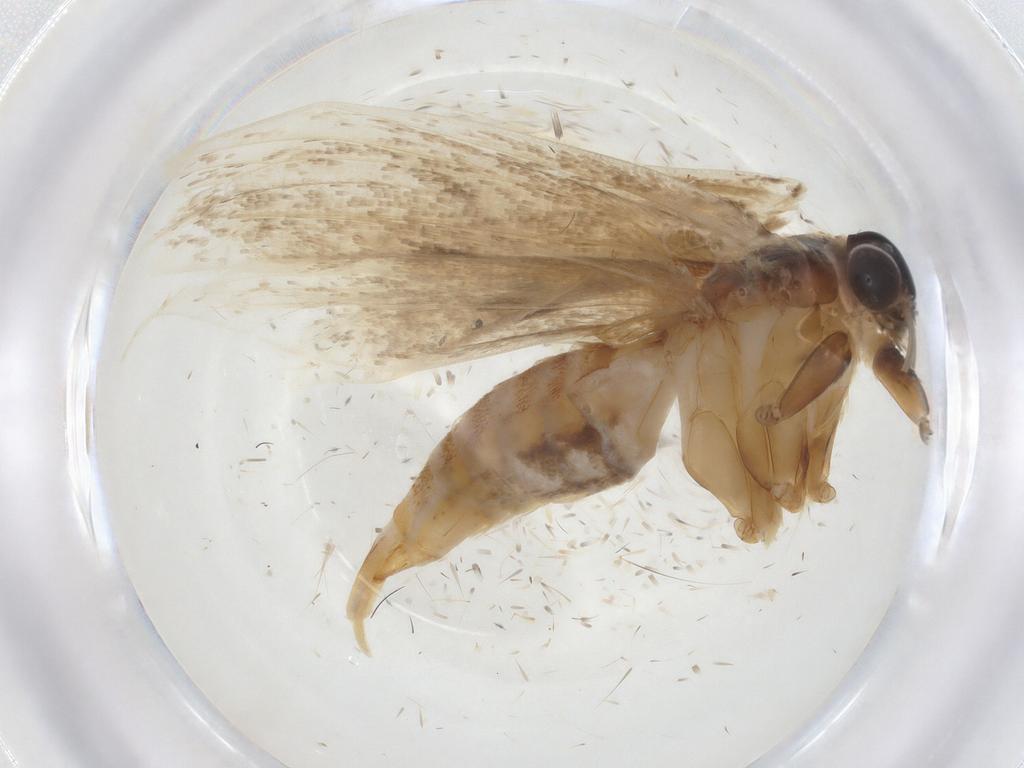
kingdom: Animalia
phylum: Arthropoda
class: Insecta
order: Lepidoptera
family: Oecophoridae
